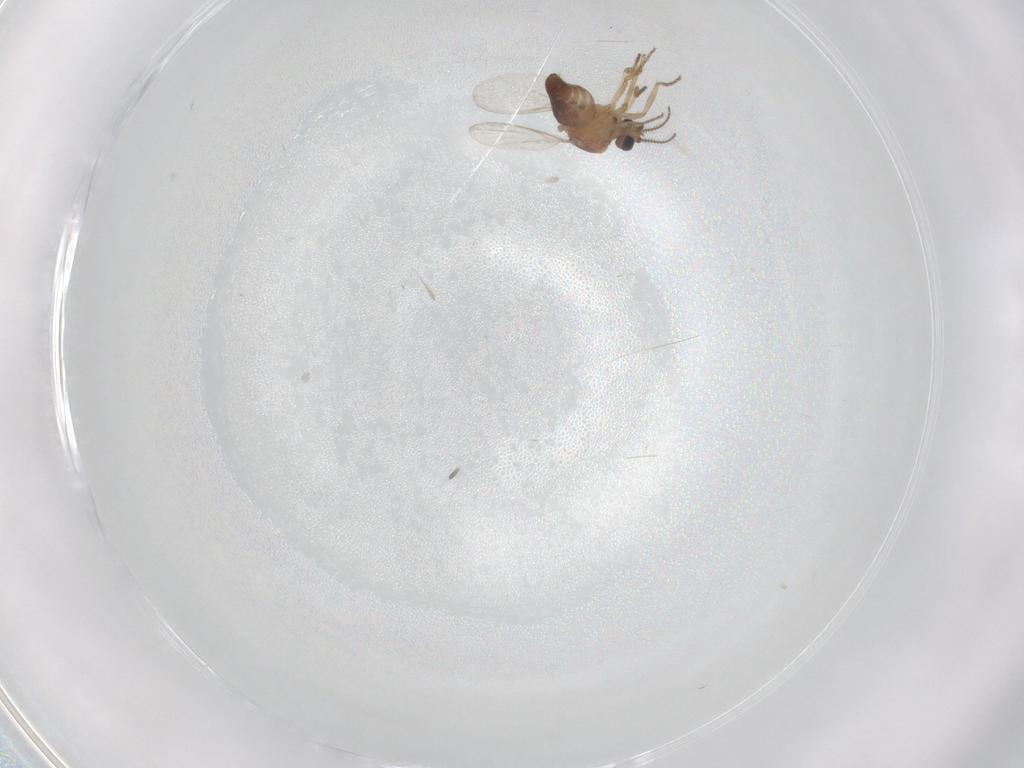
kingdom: Animalia
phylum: Arthropoda
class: Insecta
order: Diptera
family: Ceratopogonidae
